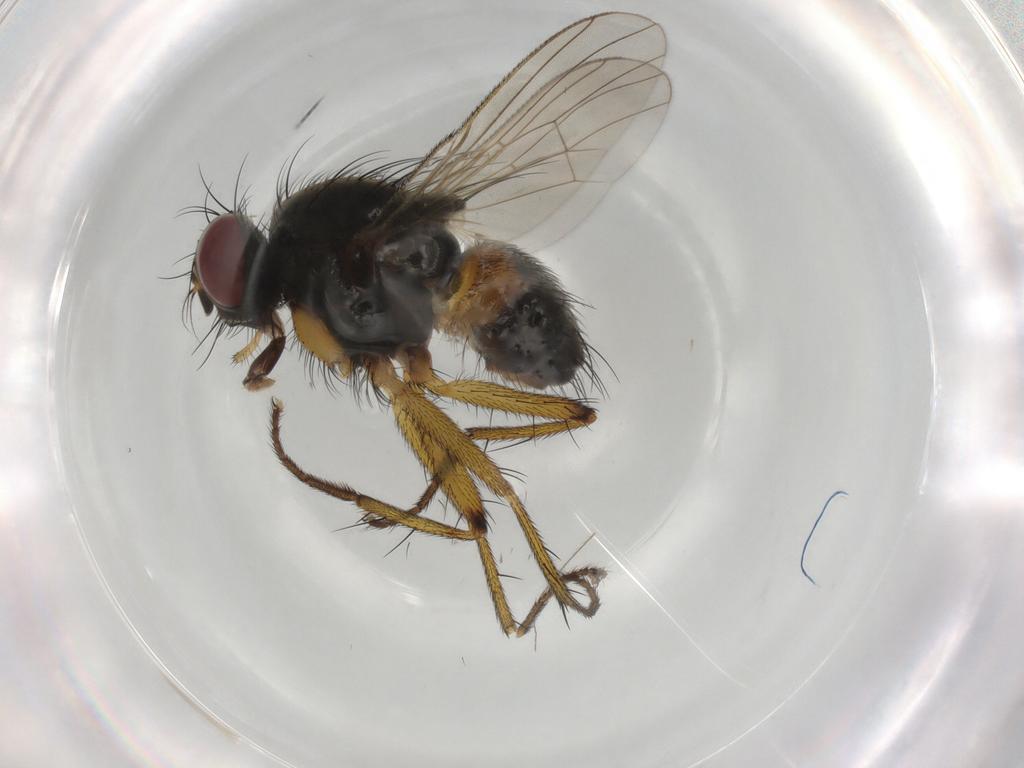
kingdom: Animalia
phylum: Arthropoda
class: Insecta
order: Diptera
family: Muscidae
